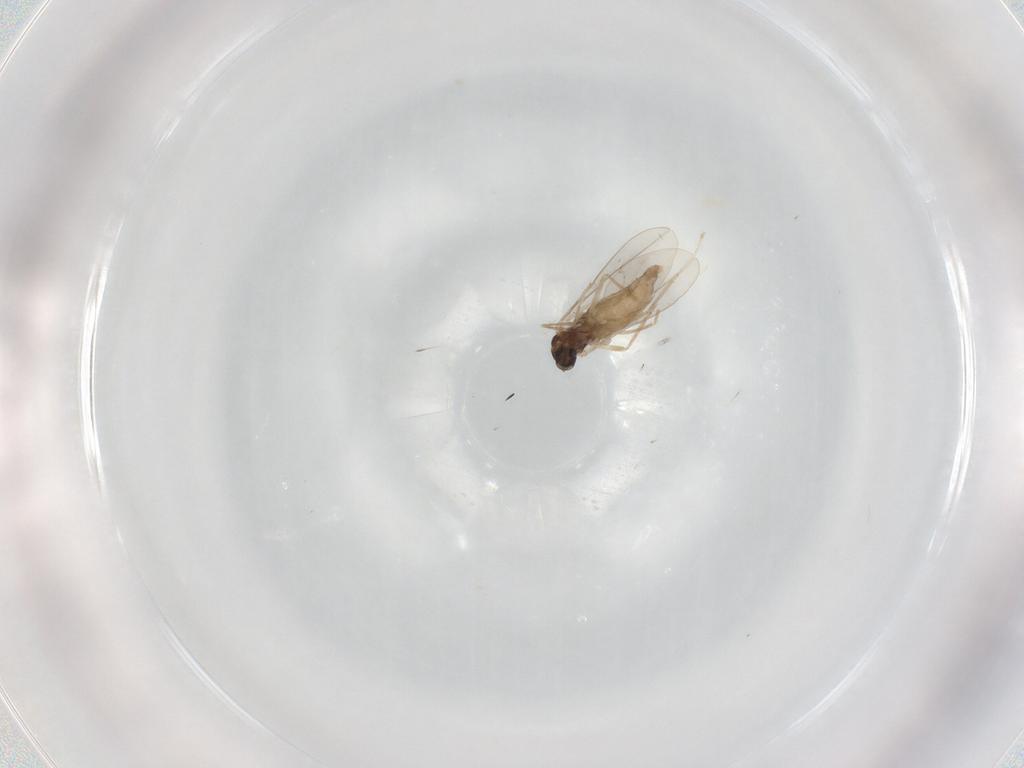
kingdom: Animalia
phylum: Arthropoda
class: Insecta
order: Diptera
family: Cecidomyiidae
